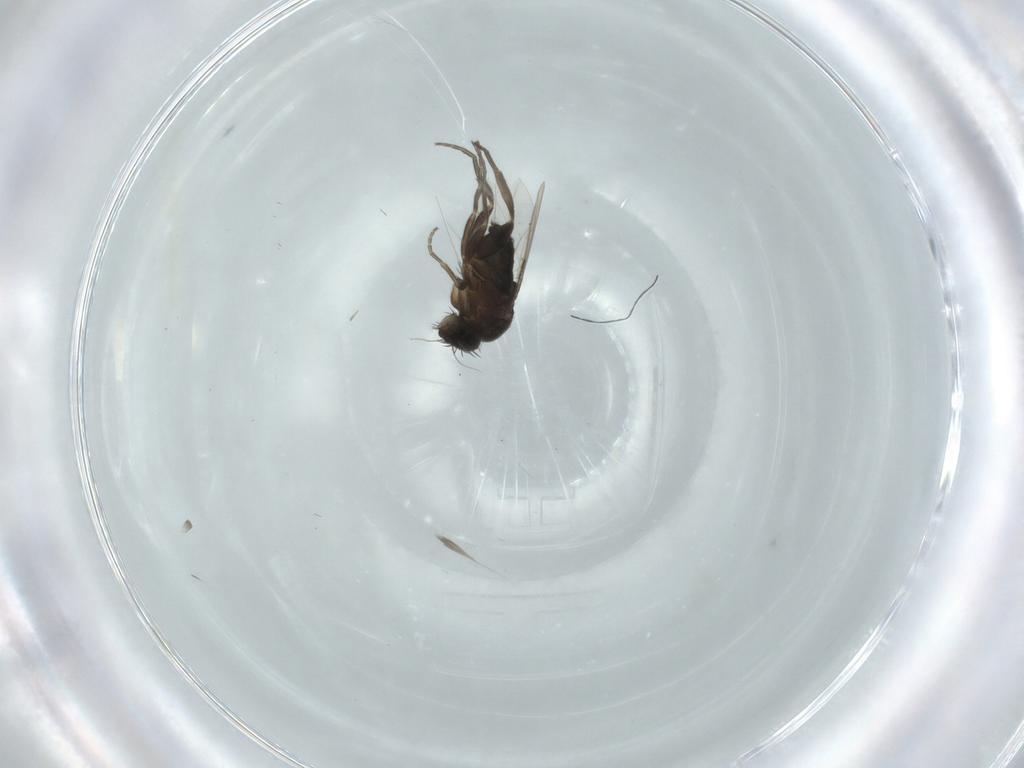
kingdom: Animalia
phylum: Arthropoda
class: Insecta
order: Diptera
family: Phoridae
